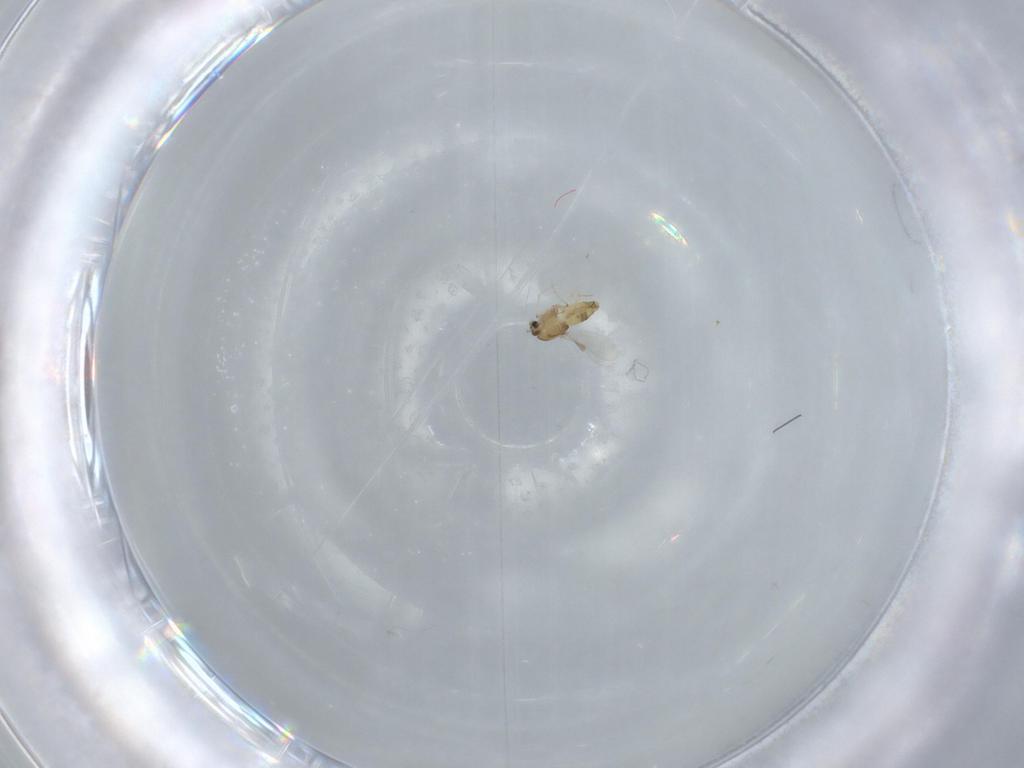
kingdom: Animalia
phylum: Arthropoda
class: Insecta
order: Diptera
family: Chironomidae
